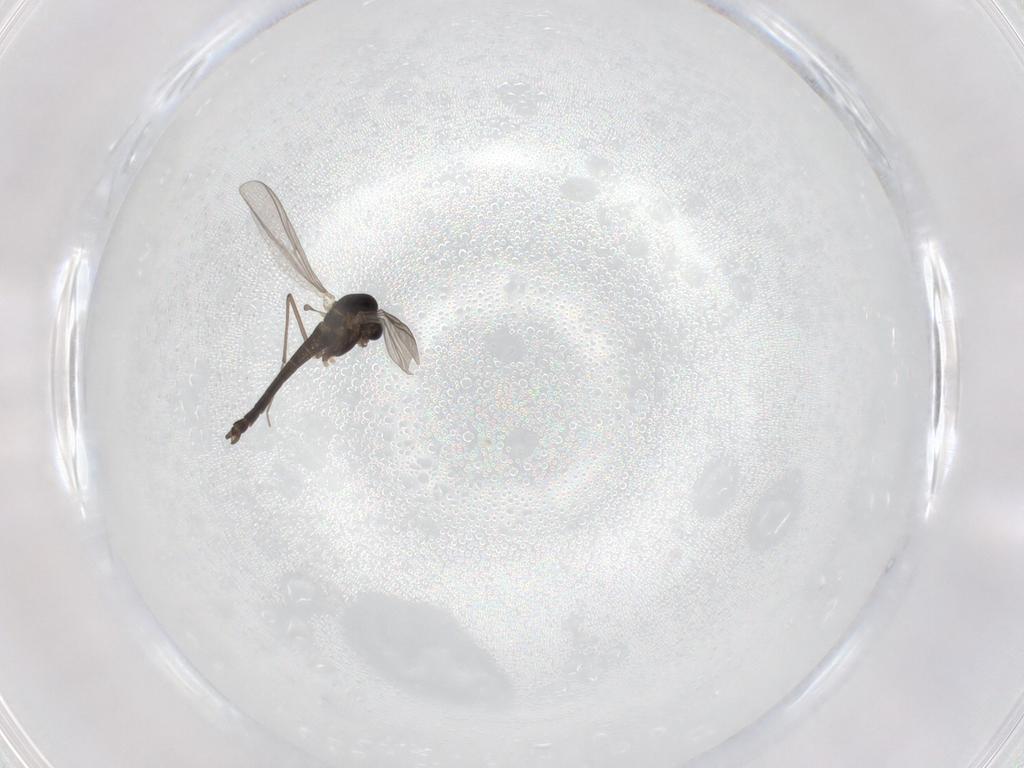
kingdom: Animalia
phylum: Arthropoda
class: Insecta
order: Diptera
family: Chironomidae
